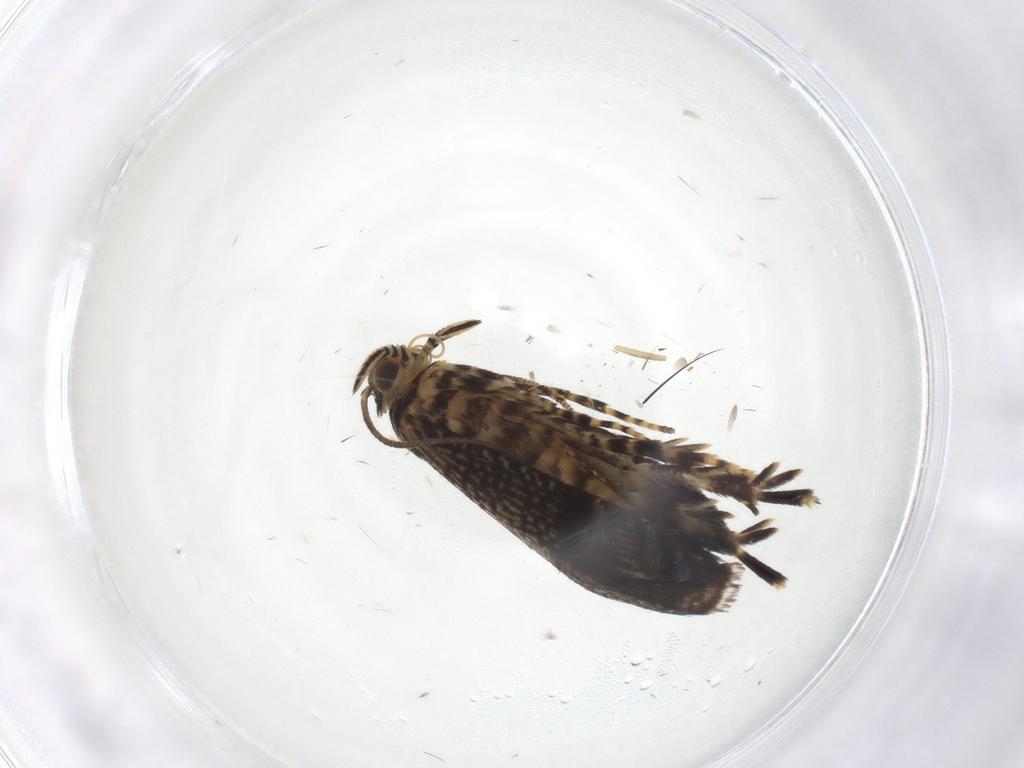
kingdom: Animalia
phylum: Arthropoda
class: Insecta
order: Lepidoptera
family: Geometridae
